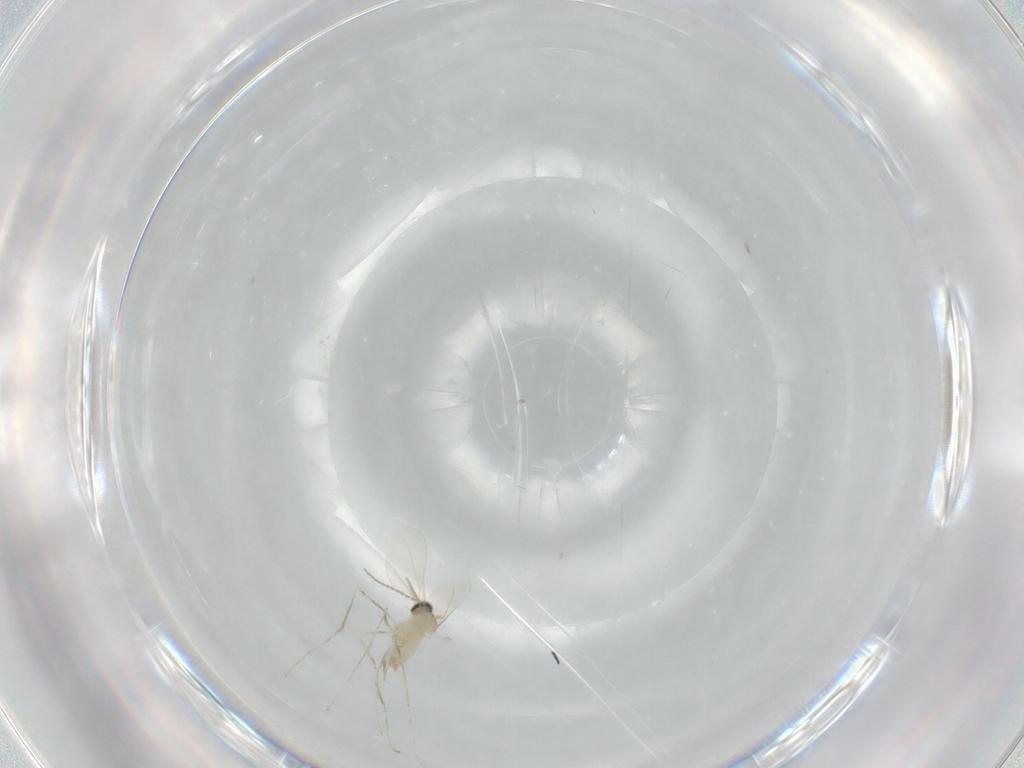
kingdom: Animalia
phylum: Arthropoda
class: Insecta
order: Diptera
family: Cecidomyiidae
